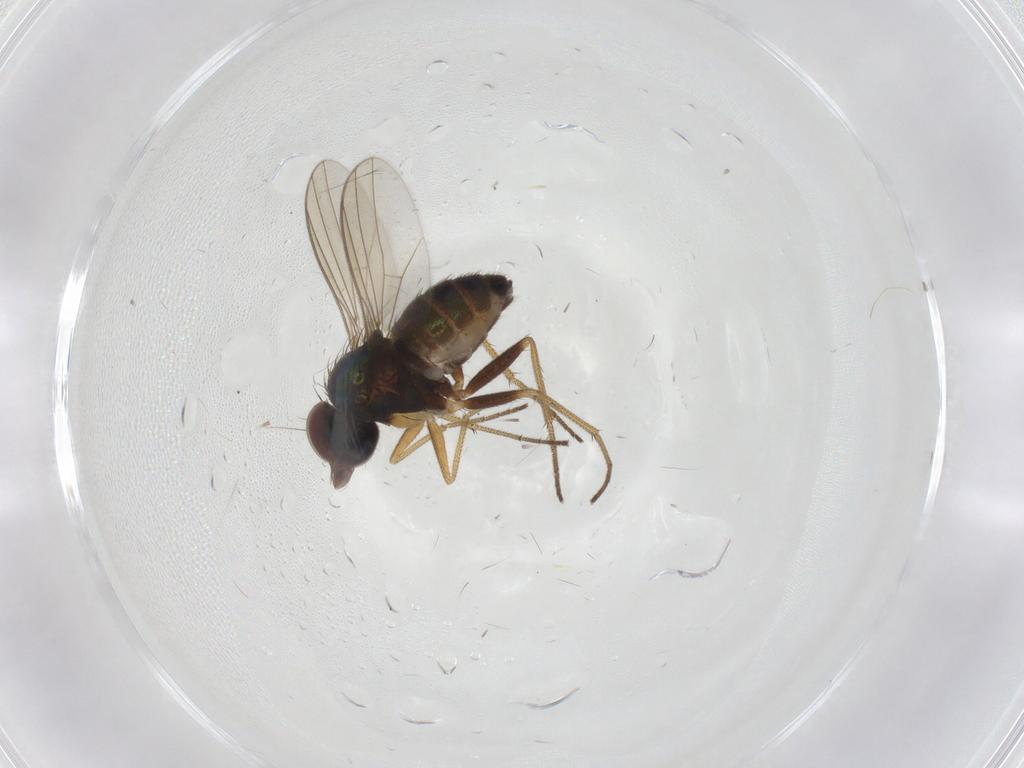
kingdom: Animalia
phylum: Arthropoda
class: Insecta
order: Diptera
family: Dolichopodidae
